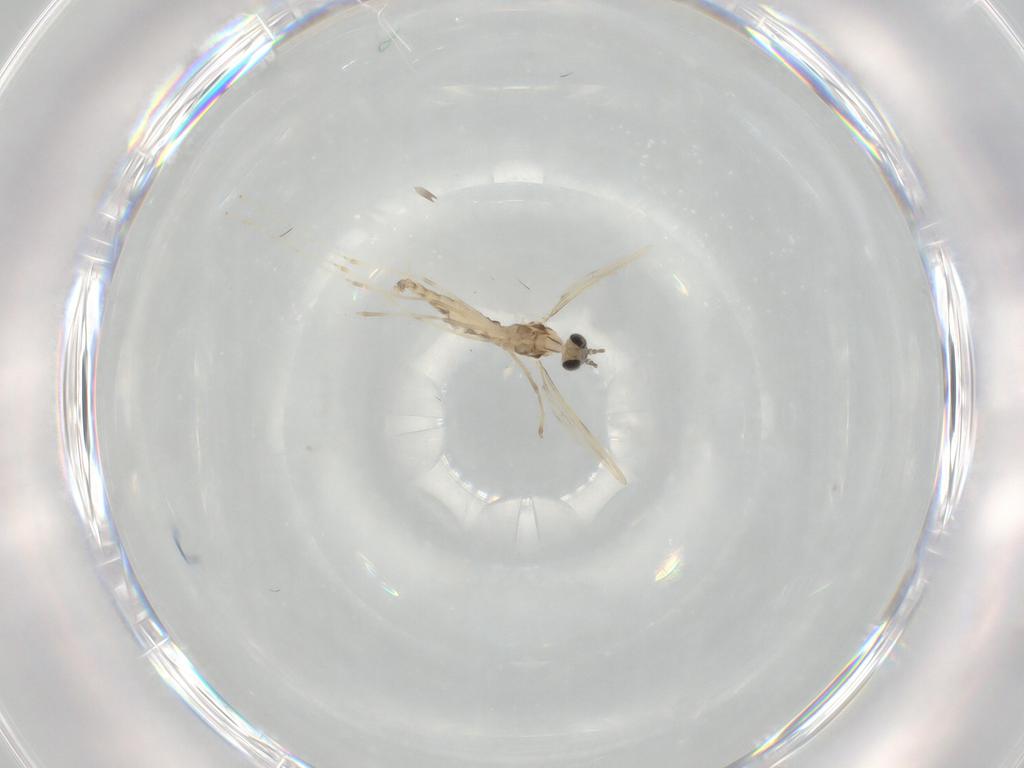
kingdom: Animalia
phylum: Arthropoda
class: Insecta
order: Diptera
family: Cecidomyiidae
